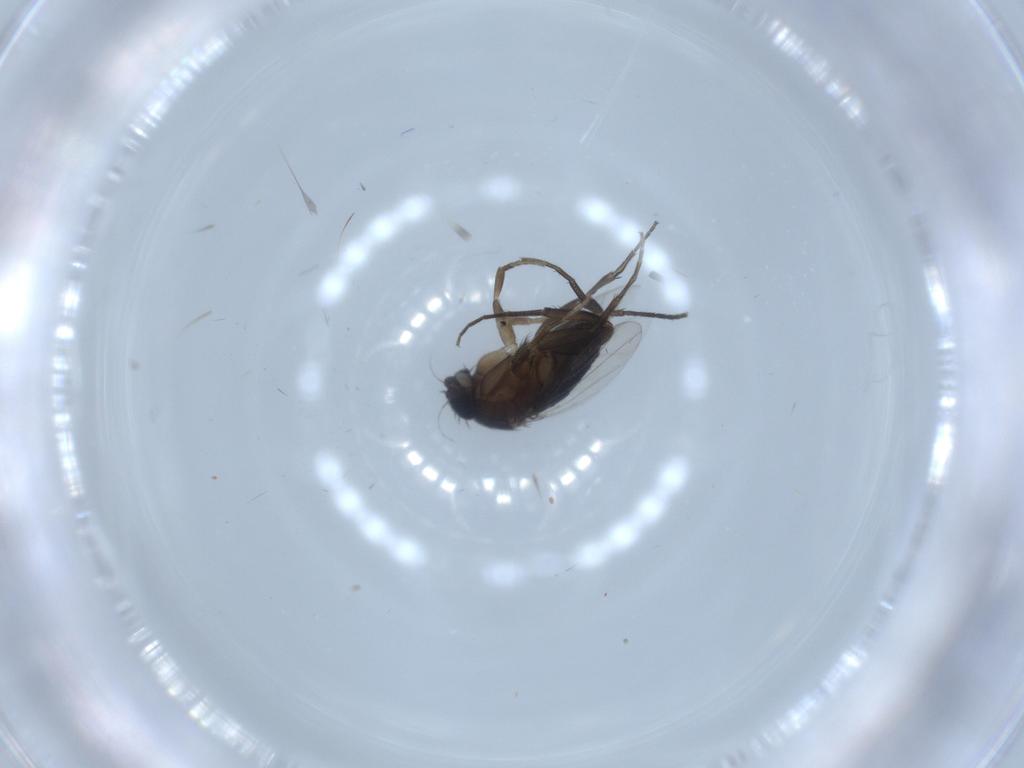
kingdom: Animalia
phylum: Arthropoda
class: Insecta
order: Diptera
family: Phoridae
